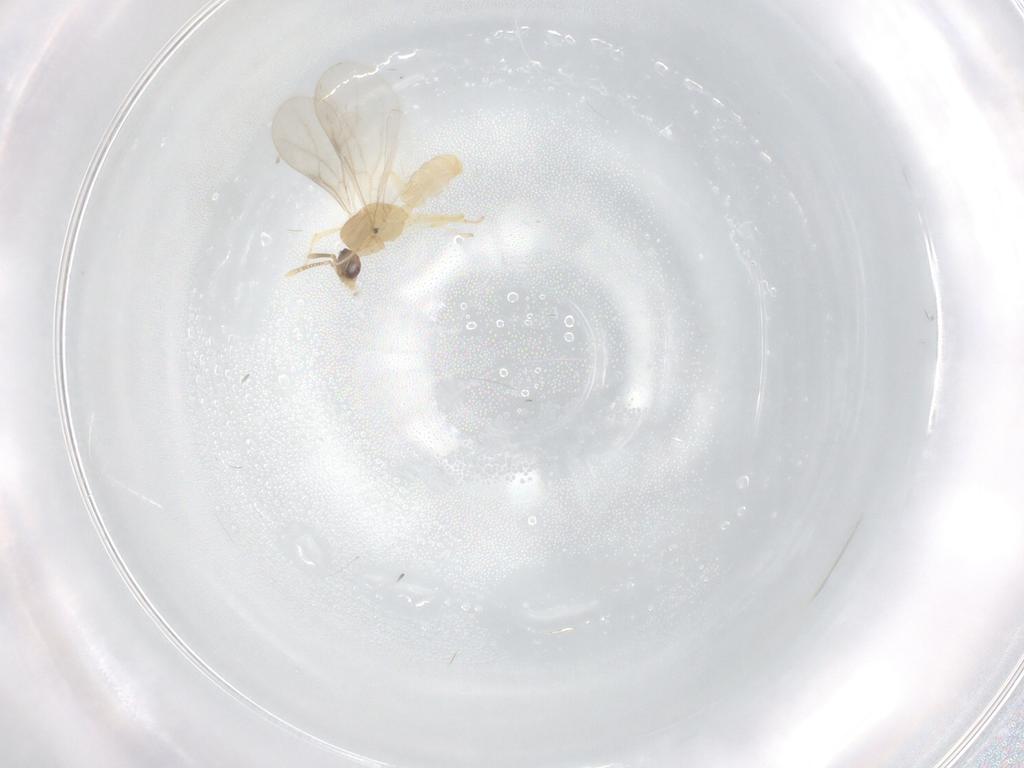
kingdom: Animalia
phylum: Arthropoda
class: Insecta
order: Hymenoptera
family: Formicidae
